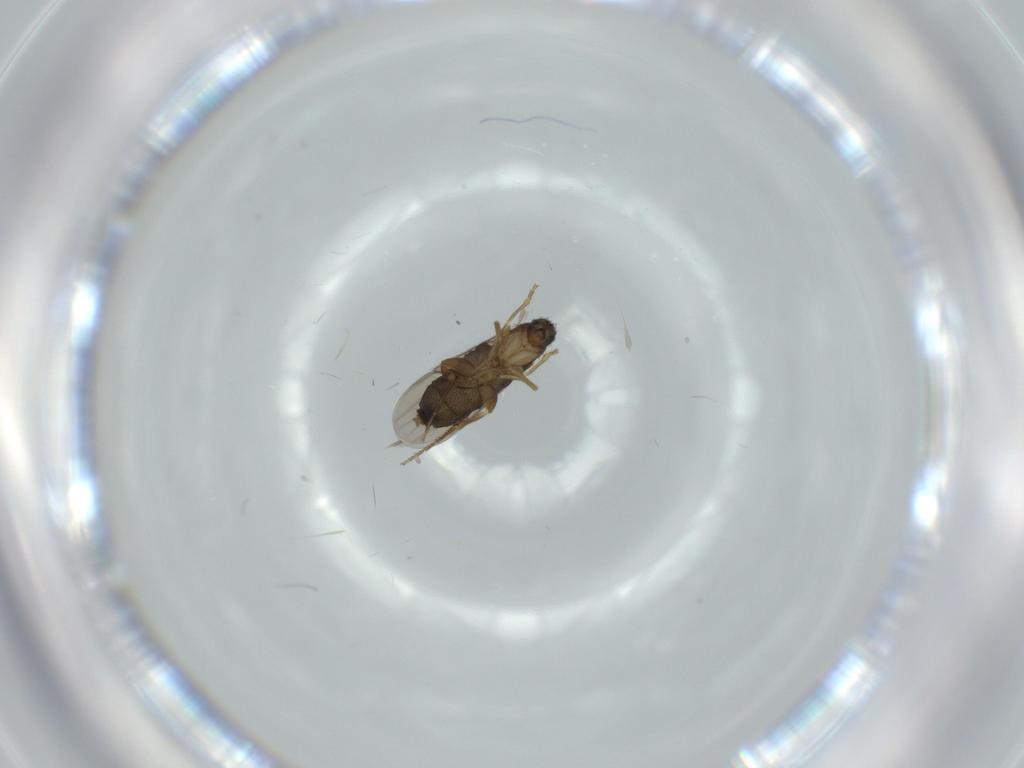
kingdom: Animalia
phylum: Arthropoda
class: Insecta
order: Diptera
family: Phoridae
